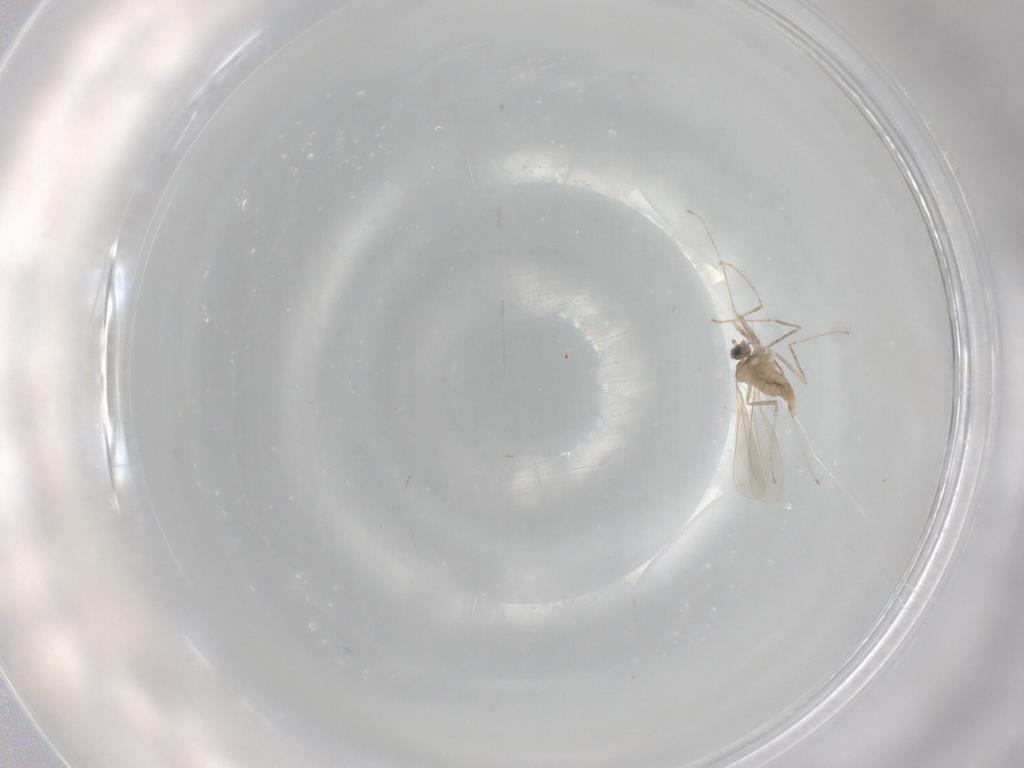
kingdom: Animalia
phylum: Arthropoda
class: Insecta
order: Diptera
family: Cecidomyiidae
